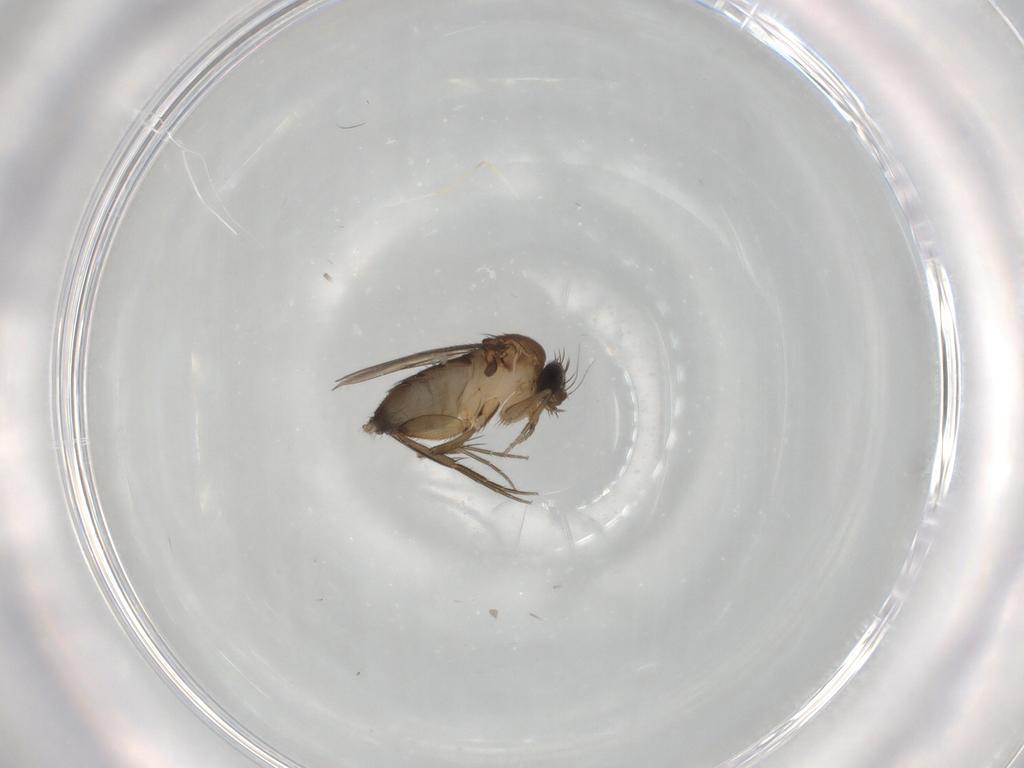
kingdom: Animalia
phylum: Arthropoda
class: Insecta
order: Diptera
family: Phoridae
